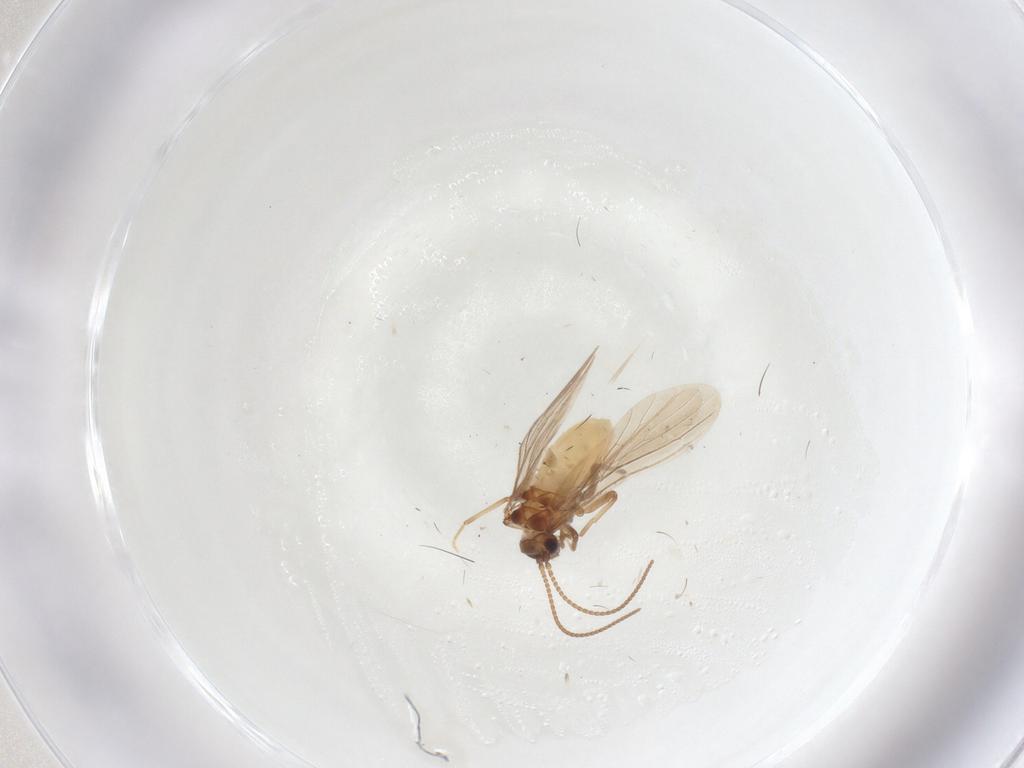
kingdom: Animalia
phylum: Arthropoda
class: Insecta
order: Neuroptera
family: Coniopterygidae
